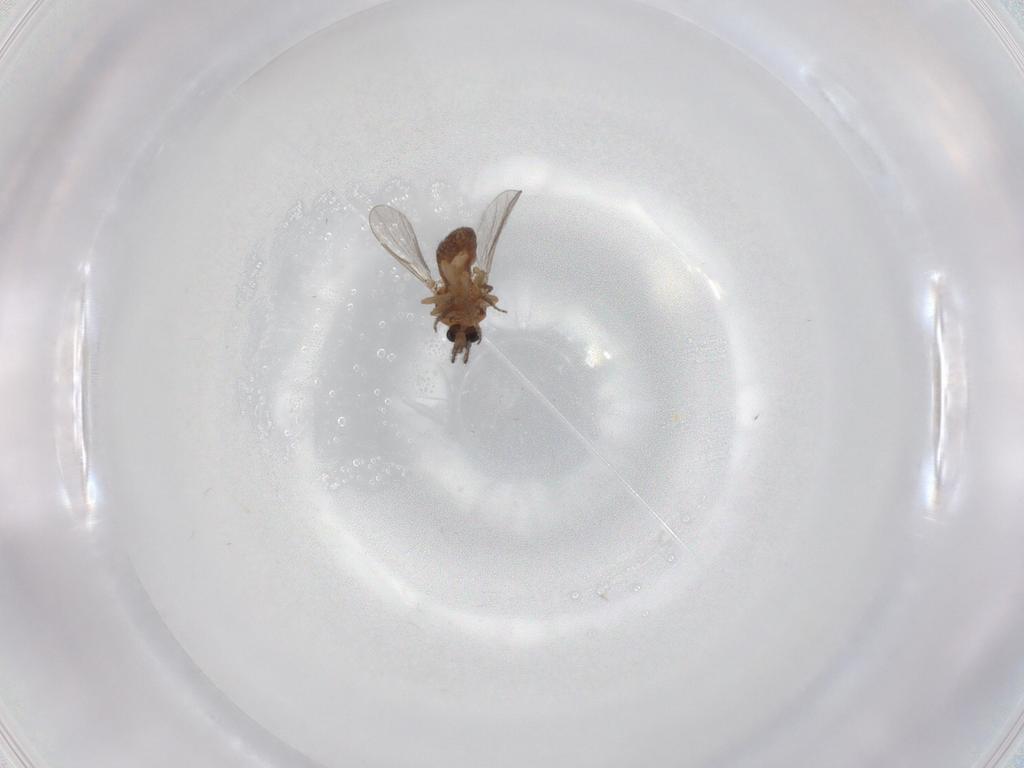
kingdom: Animalia
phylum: Arthropoda
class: Insecta
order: Diptera
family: Ceratopogonidae
